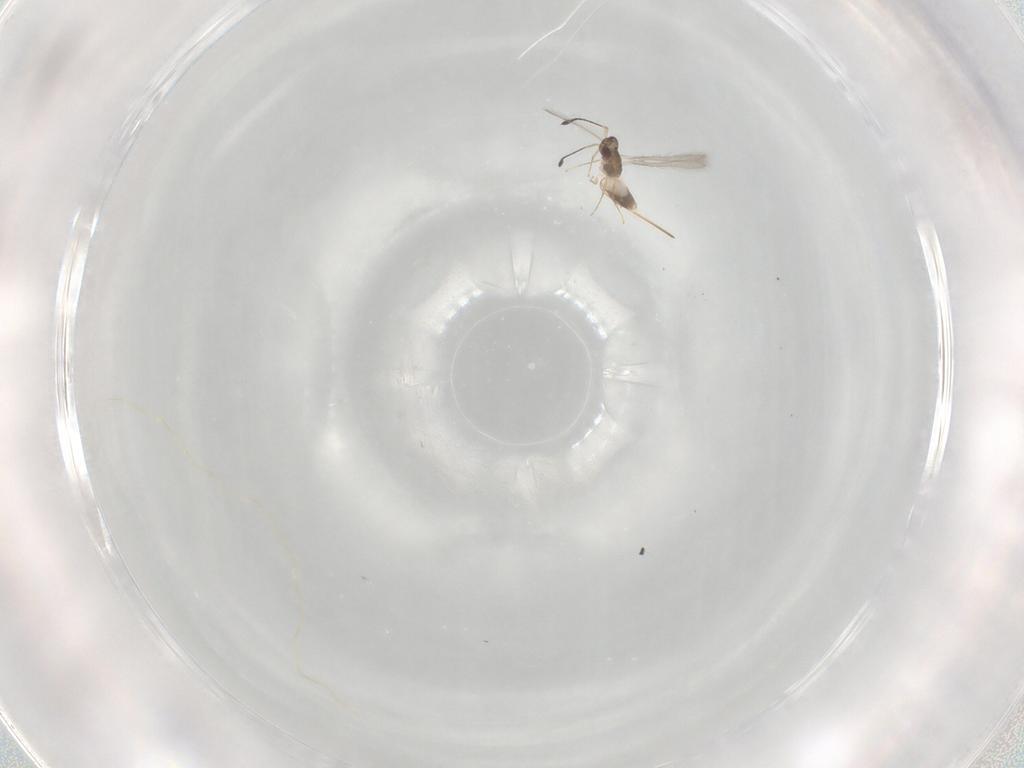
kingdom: Animalia
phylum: Arthropoda
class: Insecta
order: Hymenoptera
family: Mymaridae
